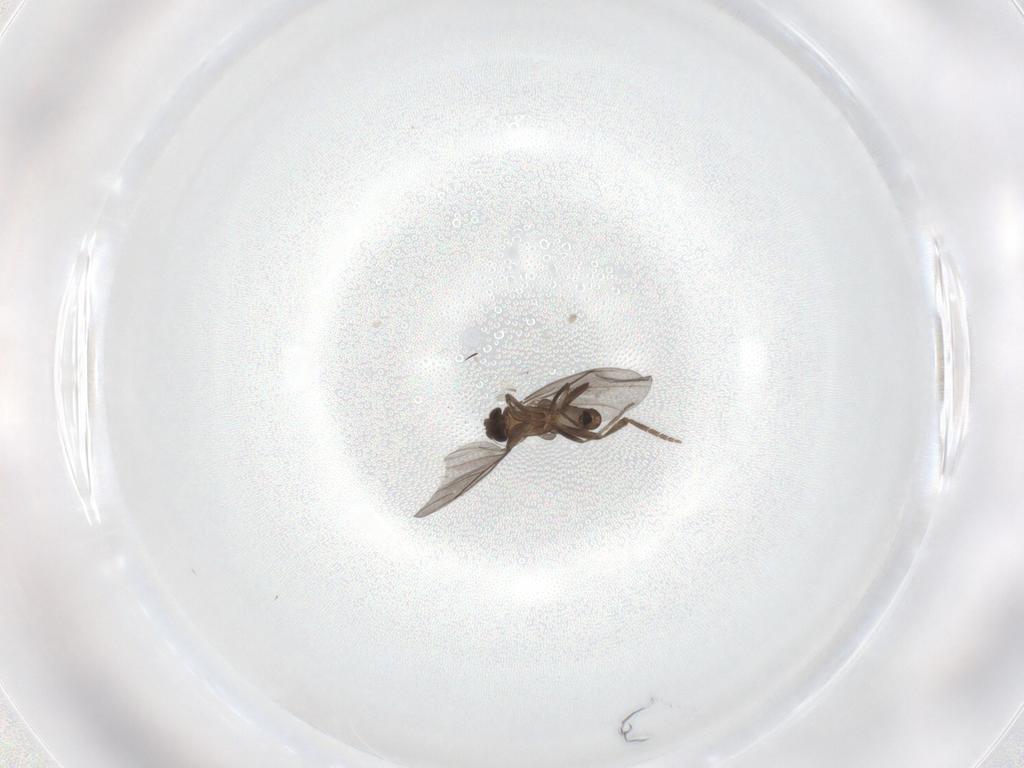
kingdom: Animalia
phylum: Arthropoda
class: Insecta
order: Diptera
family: Phoridae
